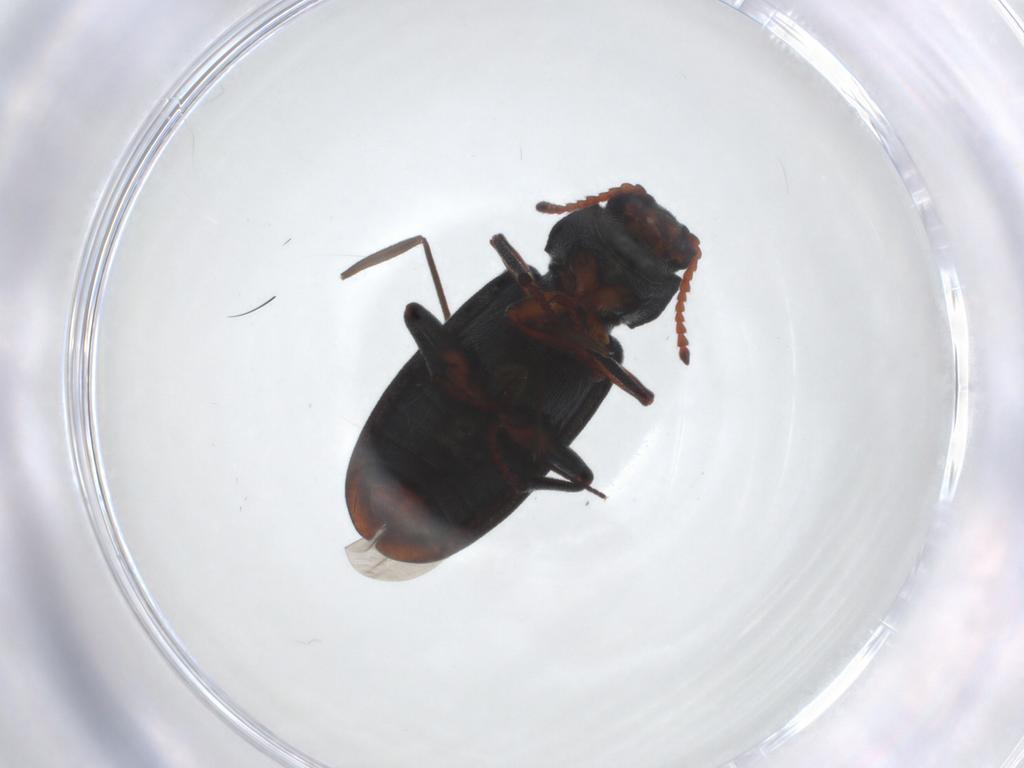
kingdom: Animalia
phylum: Arthropoda
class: Insecta
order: Coleoptera
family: Melyridae
